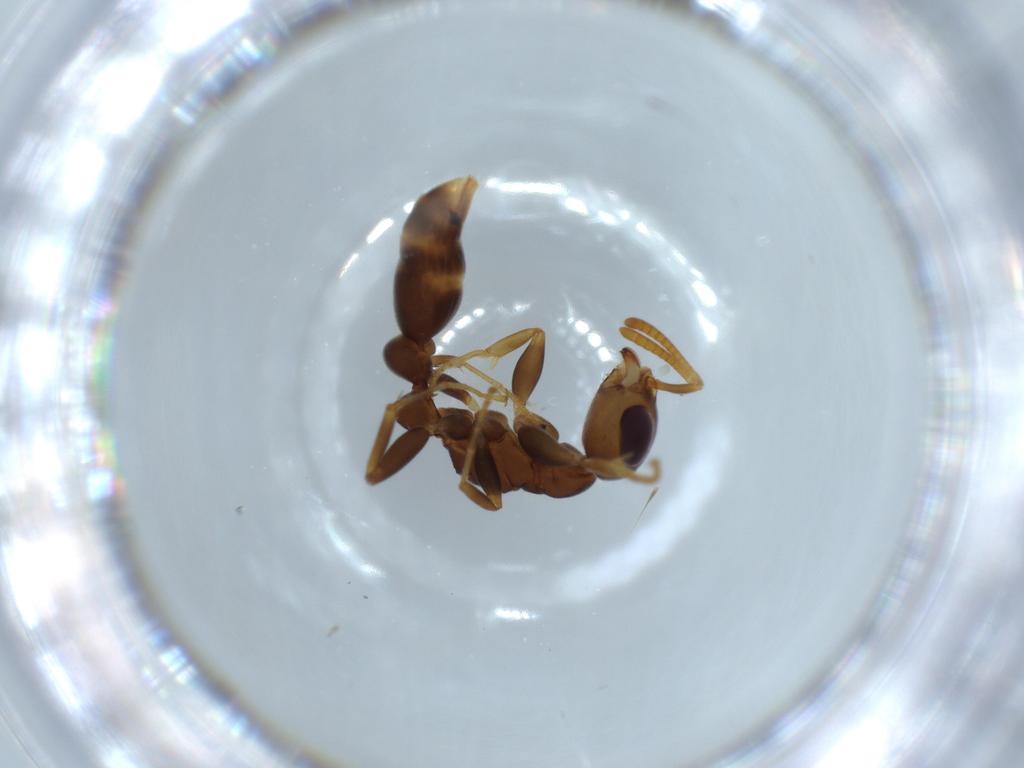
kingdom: Animalia
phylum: Arthropoda
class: Insecta
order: Hymenoptera
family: Formicidae
